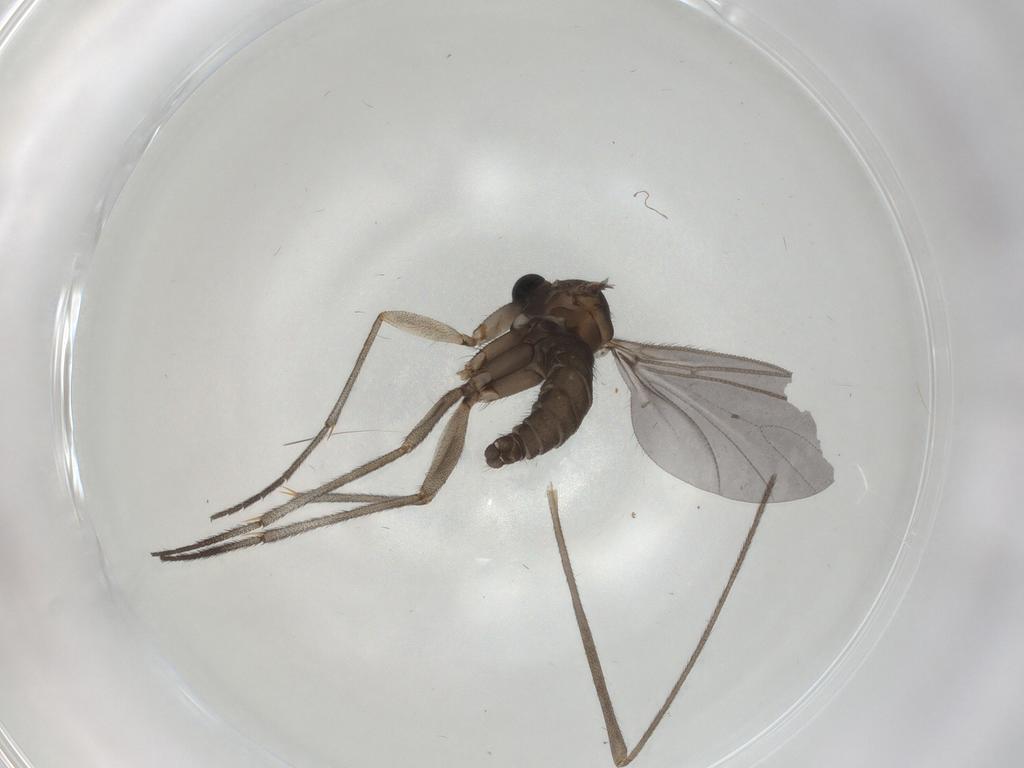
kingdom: Animalia
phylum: Arthropoda
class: Insecta
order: Diptera
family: Sciaridae
